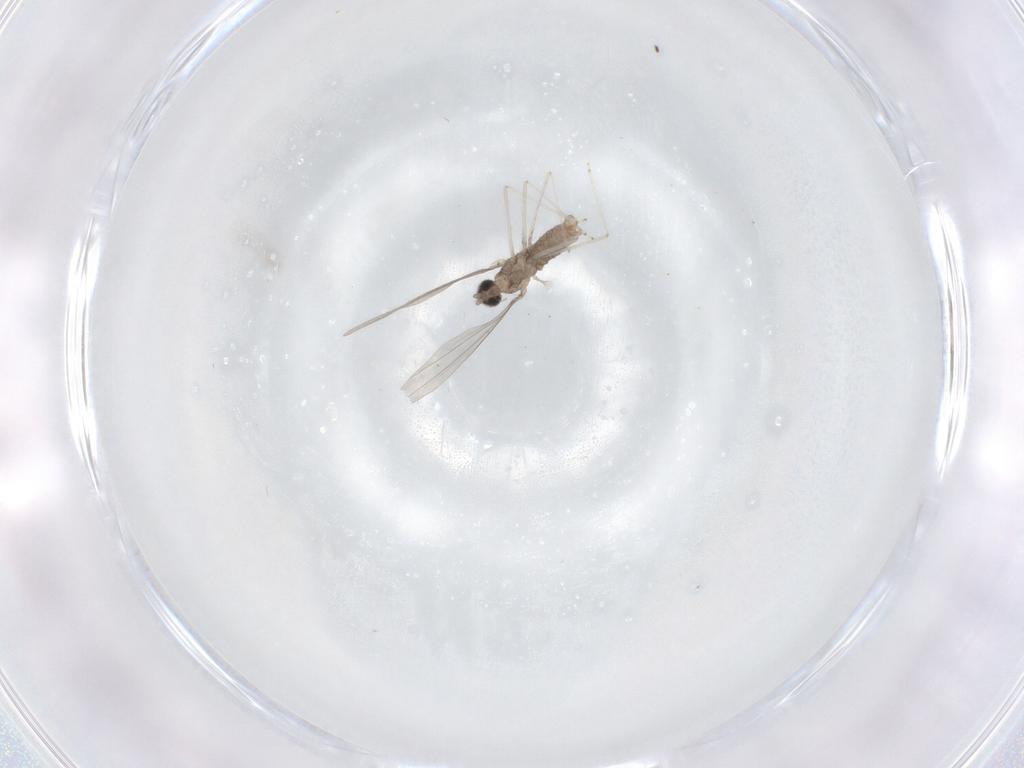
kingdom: Animalia
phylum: Arthropoda
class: Insecta
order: Diptera
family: Cecidomyiidae
